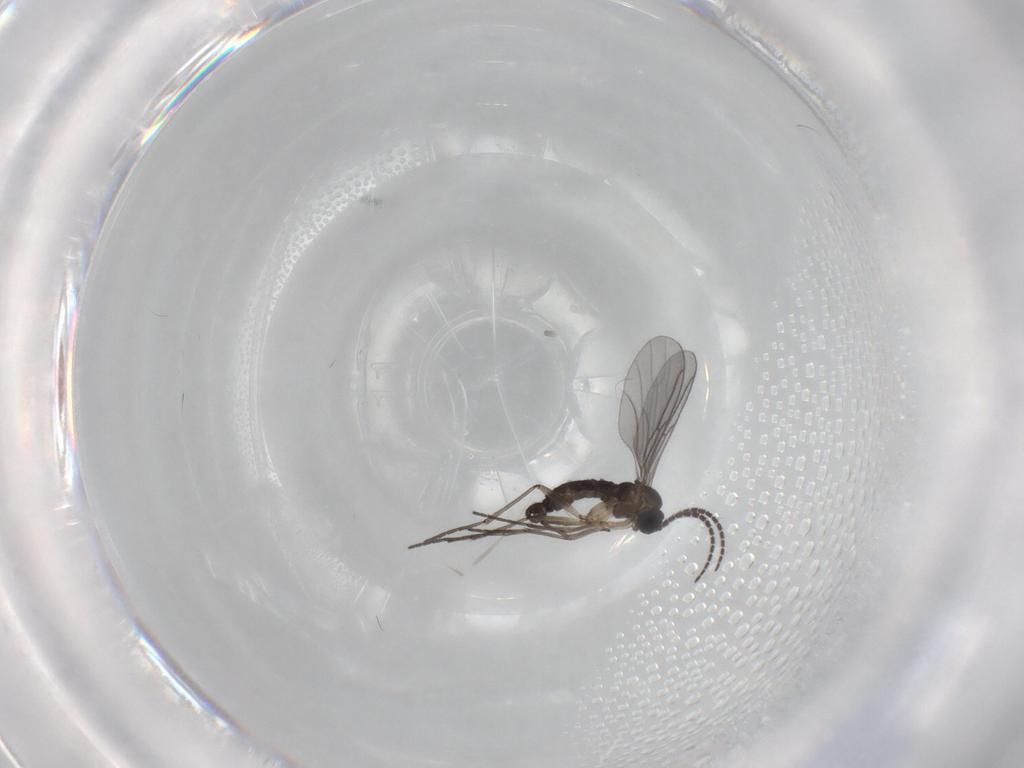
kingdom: Animalia
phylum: Arthropoda
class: Insecta
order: Diptera
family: Sciaridae
